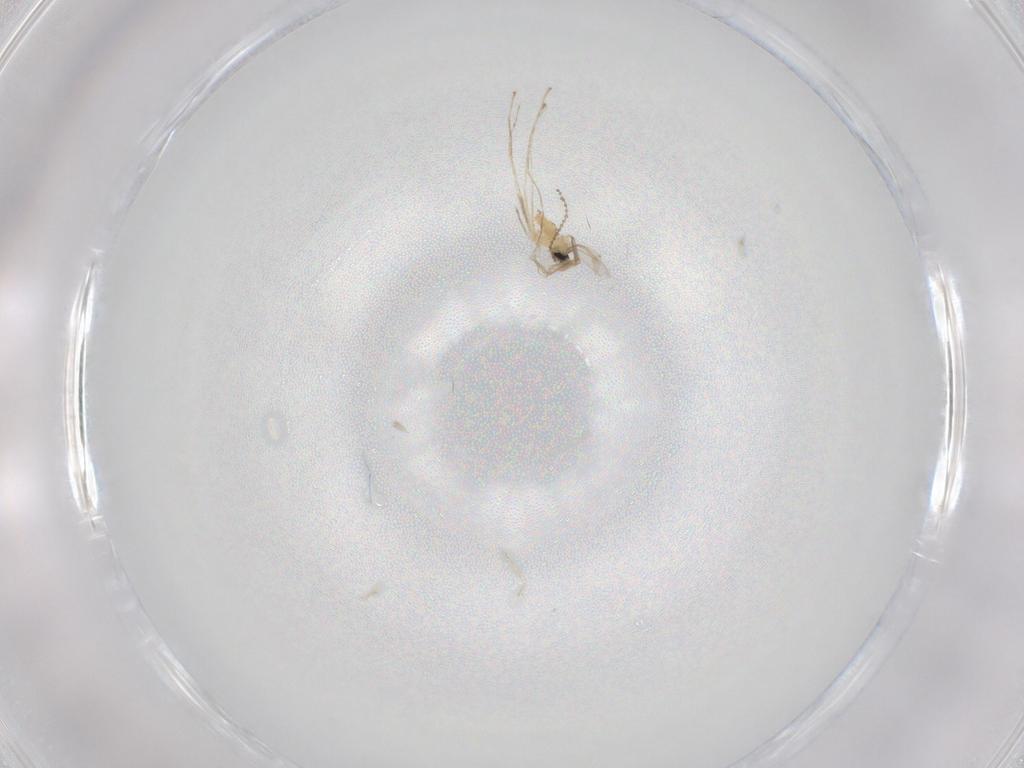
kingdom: Animalia
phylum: Arthropoda
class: Insecta
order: Diptera
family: Cecidomyiidae
